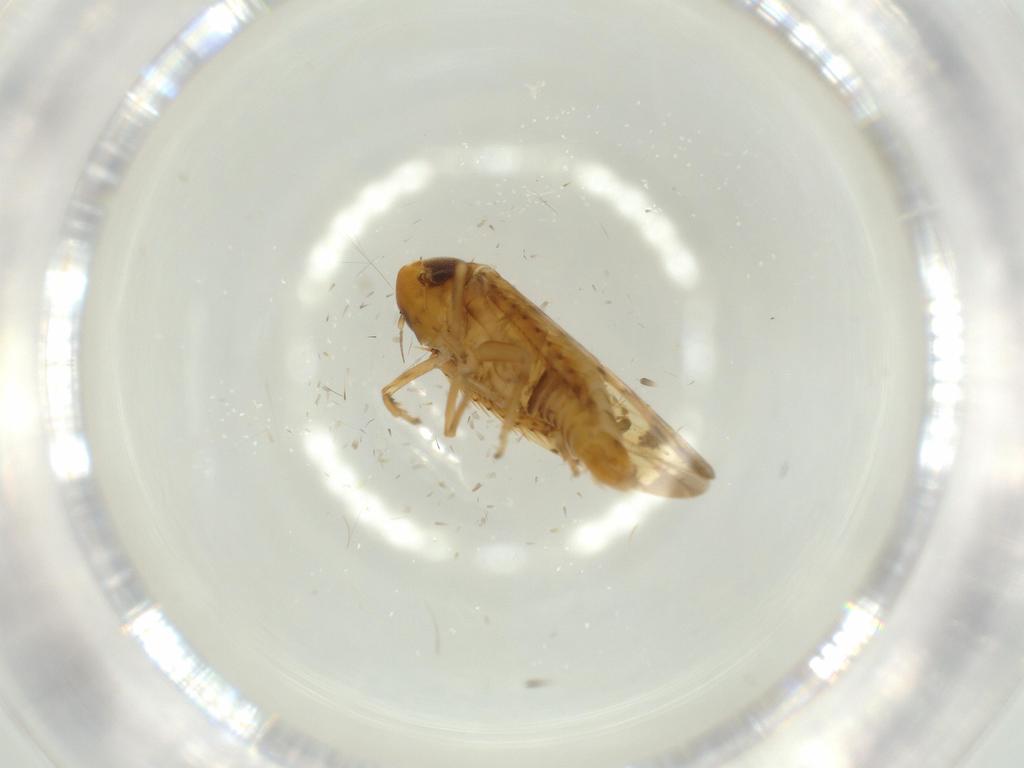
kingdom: Animalia
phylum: Arthropoda
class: Insecta
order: Hemiptera
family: Cicadellidae
